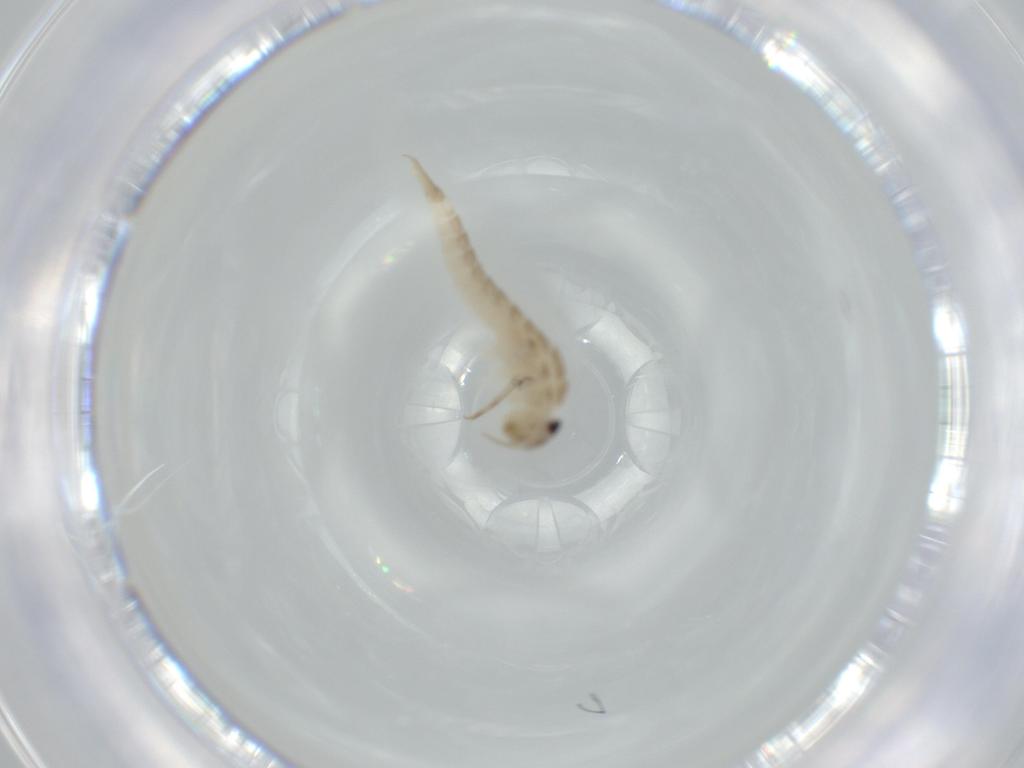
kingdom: Animalia
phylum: Arthropoda
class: Insecta
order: Ephemeroptera
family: Baetidae
